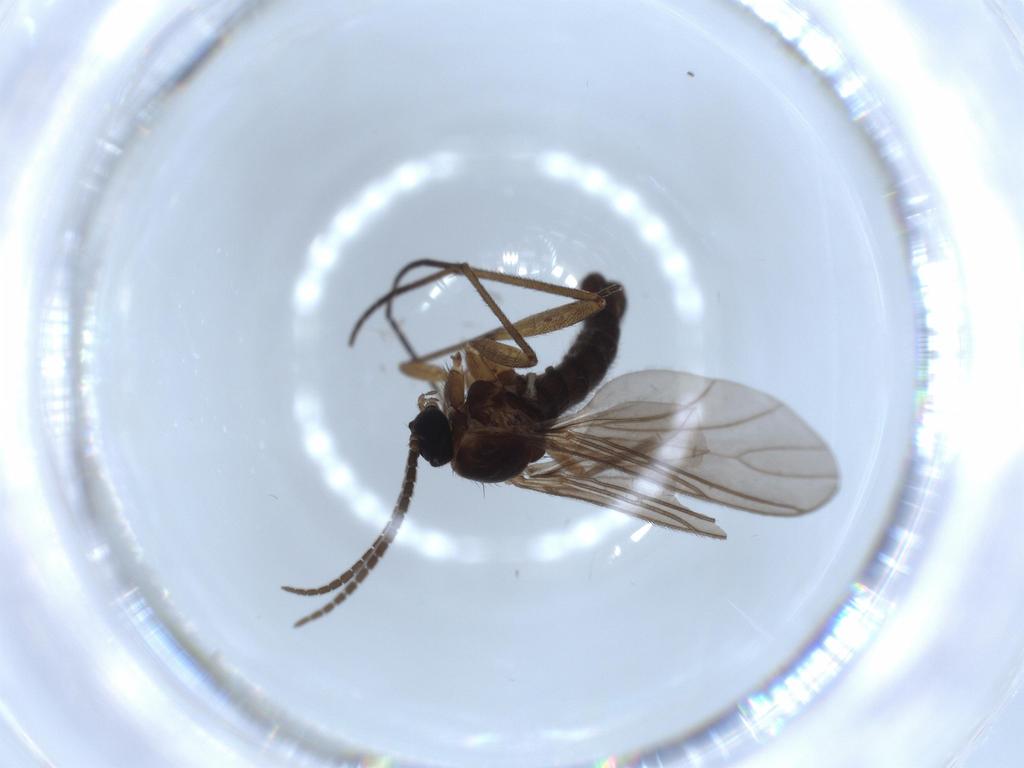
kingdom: Animalia
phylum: Arthropoda
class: Insecta
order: Diptera
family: Sciaridae
